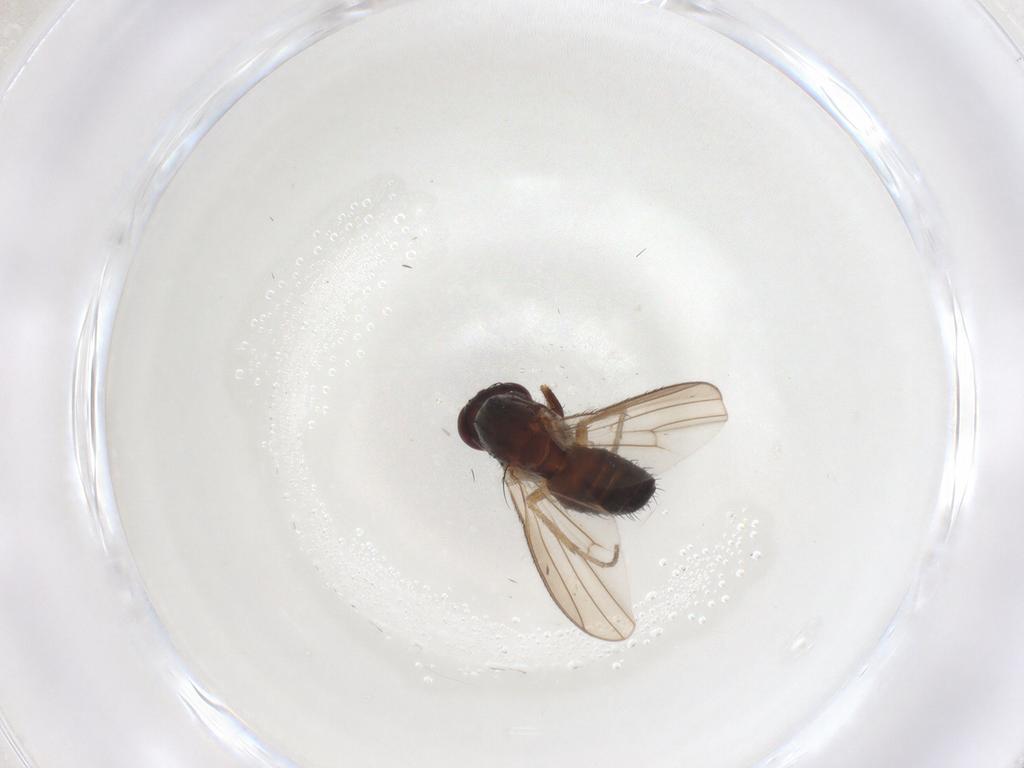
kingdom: Animalia
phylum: Arthropoda
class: Insecta
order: Diptera
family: Heleomyzidae
